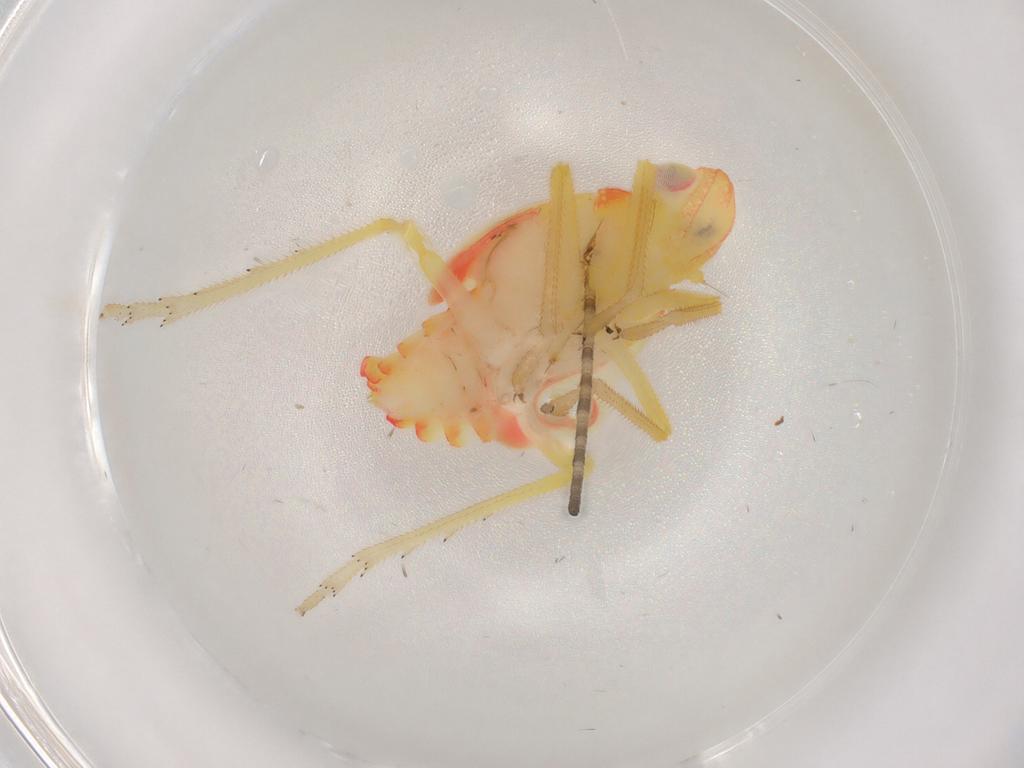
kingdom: Animalia
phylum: Arthropoda
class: Insecta
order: Hemiptera
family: Tropiduchidae
